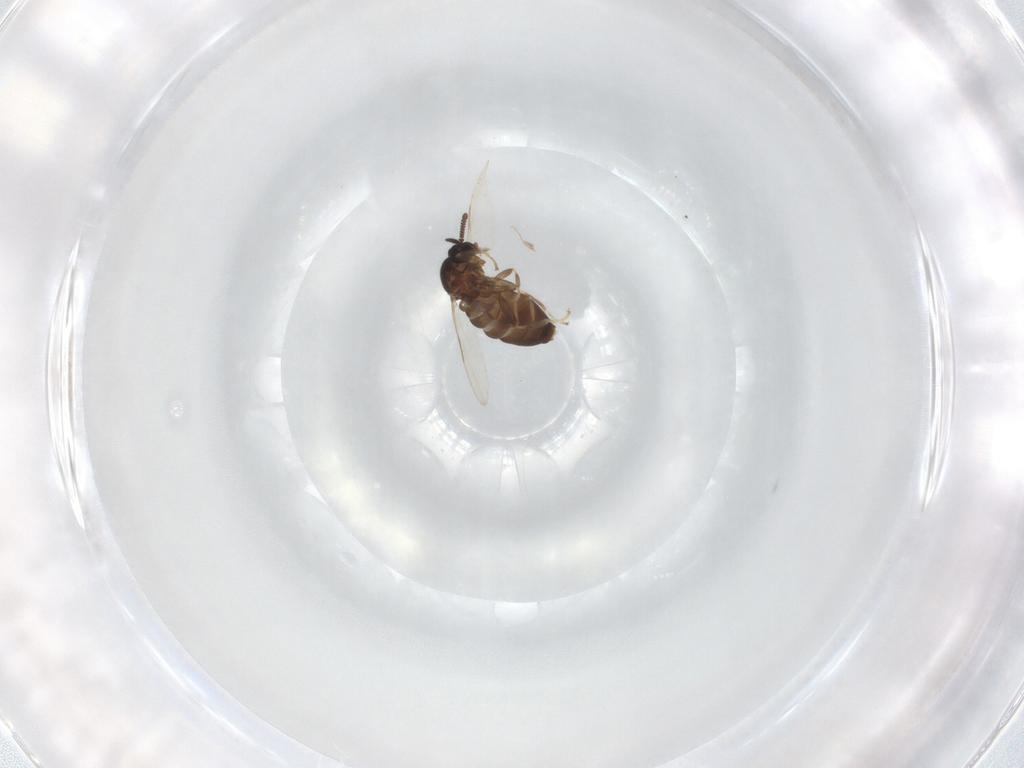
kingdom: Animalia
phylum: Arthropoda
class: Insecta
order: Diptera
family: Scatopsidae
